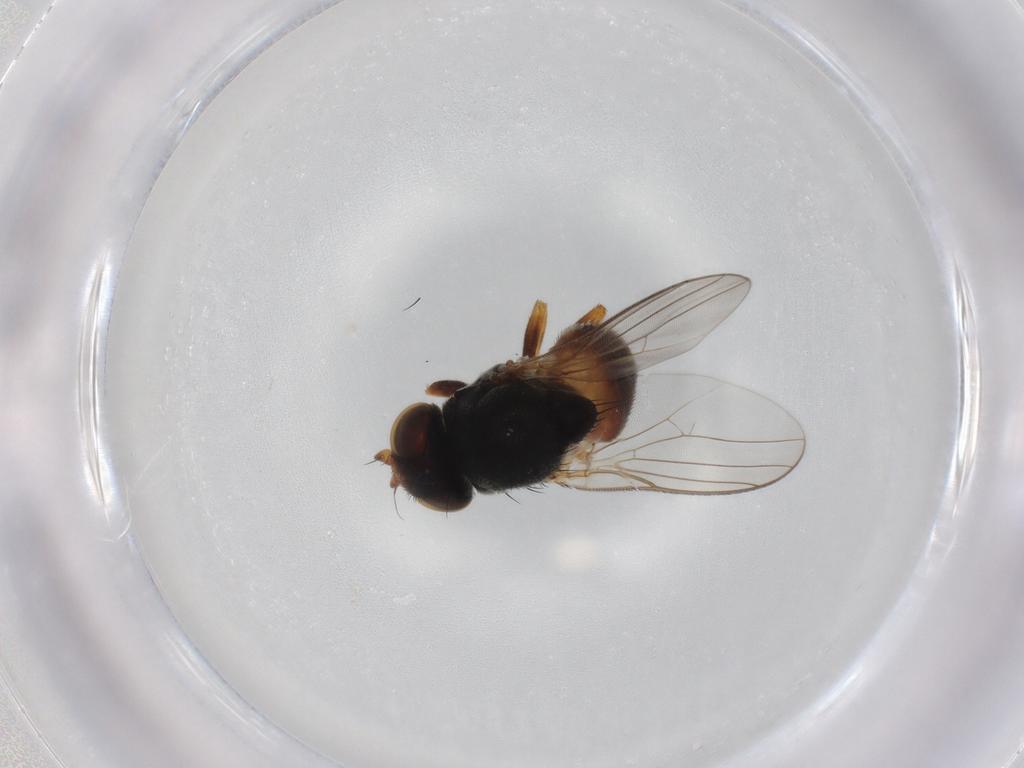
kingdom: Animalia
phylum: Arthropoda
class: Insecta
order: Diptera
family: Chloropidae
